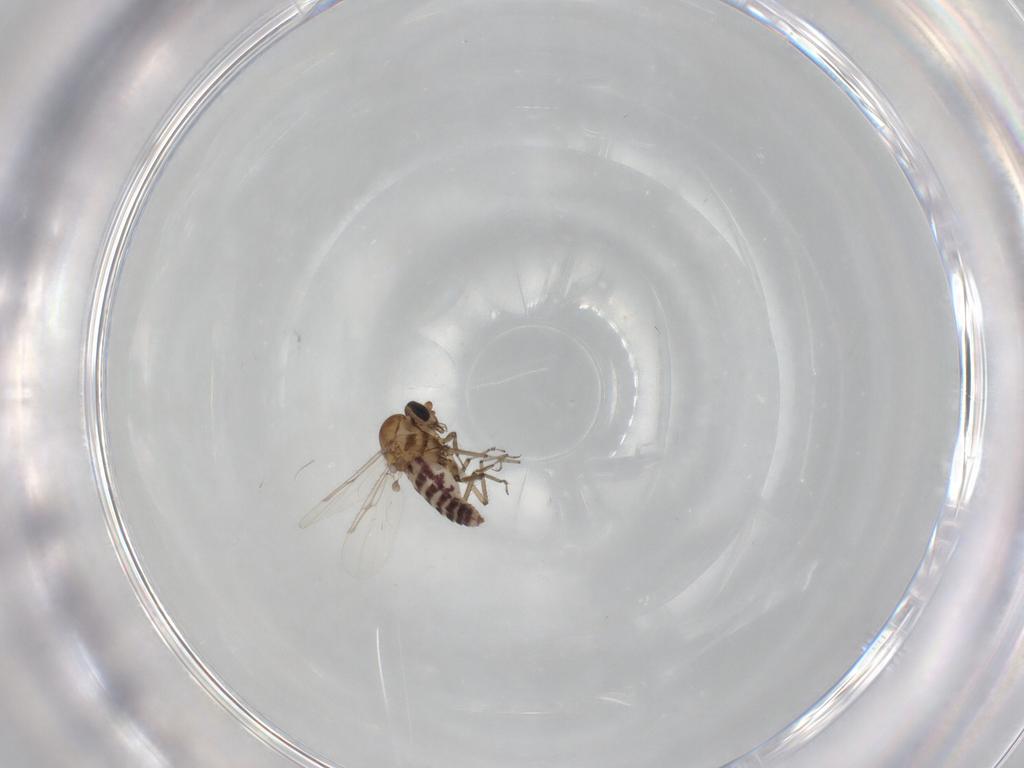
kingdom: Animalia
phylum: Arthropoda
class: Insecta
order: Diptera
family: Ceratopogonidae
